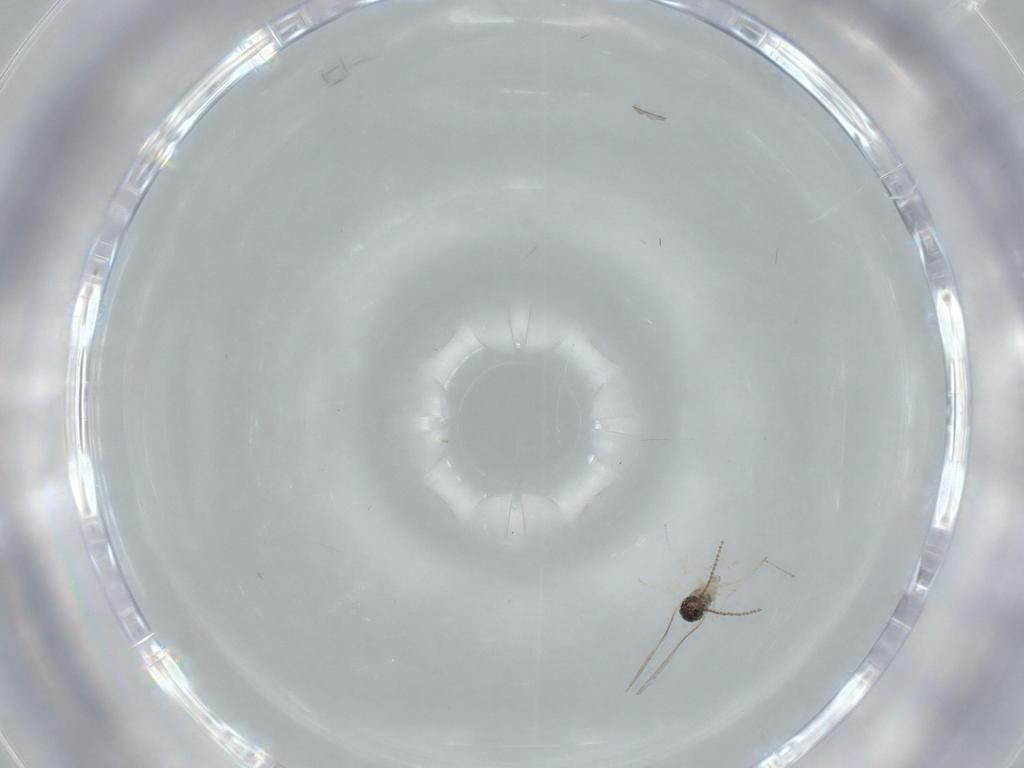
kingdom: Animalia
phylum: Arthropoda
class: Insecta
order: Diptera
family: Cecidomyiidae
